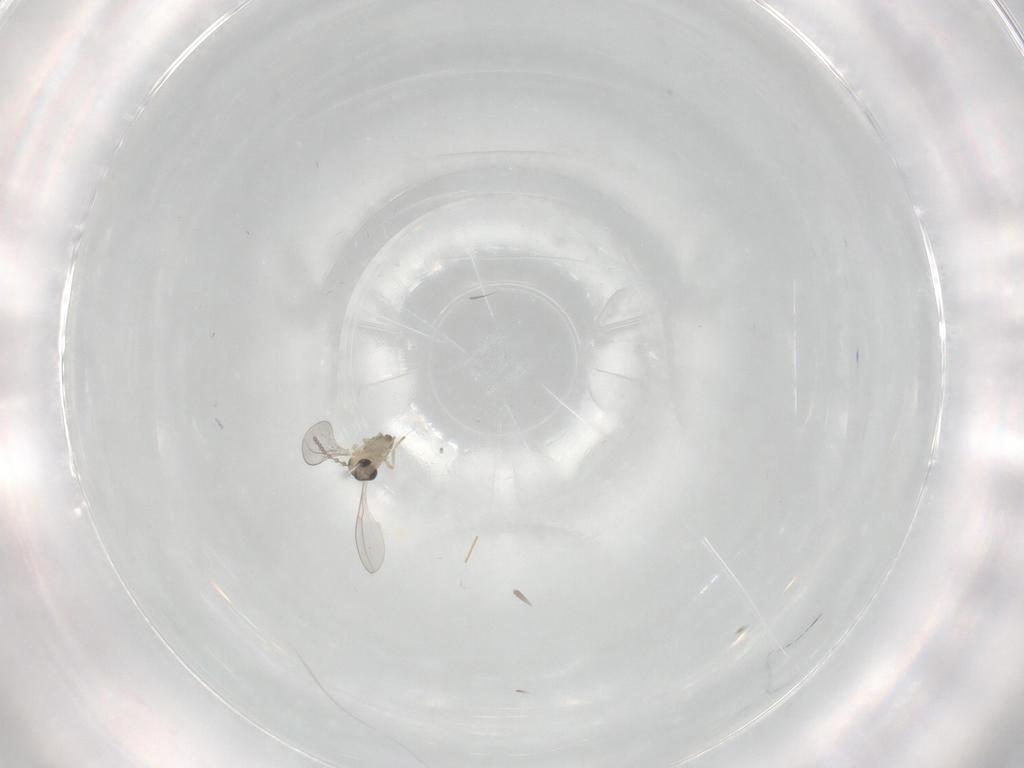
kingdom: Animalia
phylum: Arthropoda
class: Insecta
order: Diptera
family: Cecidomyiidae
